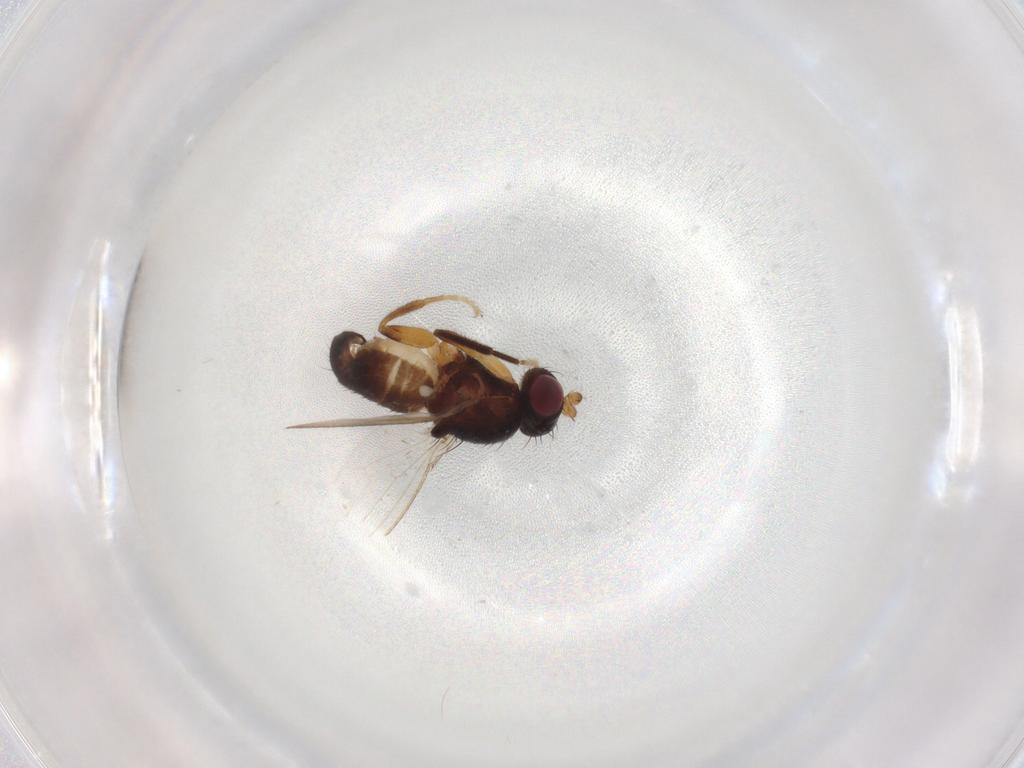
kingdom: Animalia
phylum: Arthropoda
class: Insecta
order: Diptera
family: Cypselosomatidae
